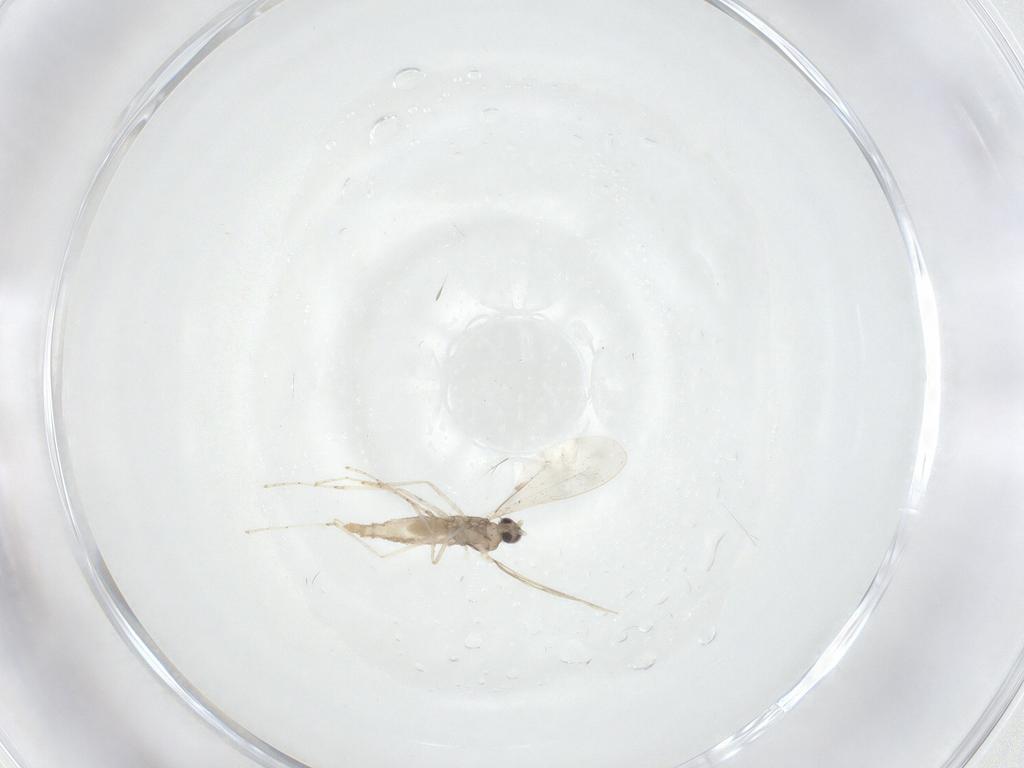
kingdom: Animalia
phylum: Arthropoda
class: Insecta
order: Diptera
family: Cecidomyiidae
